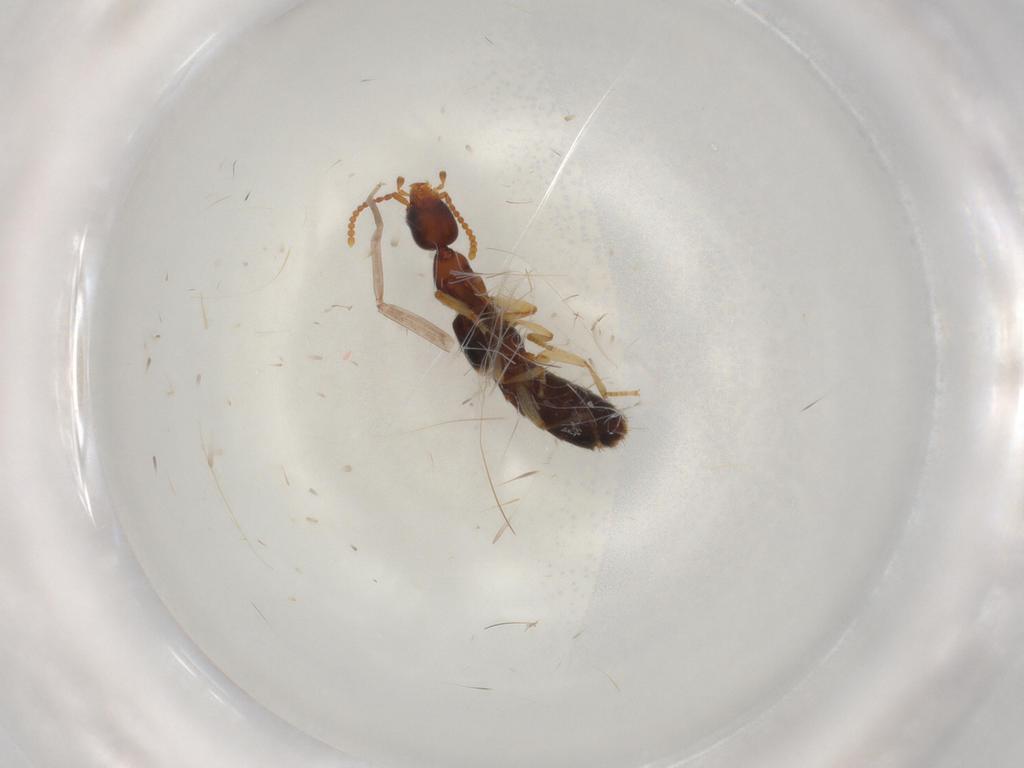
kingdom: Animalia
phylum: Arthropoda
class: Insecta
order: Coleoptera
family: Staphylinidae
